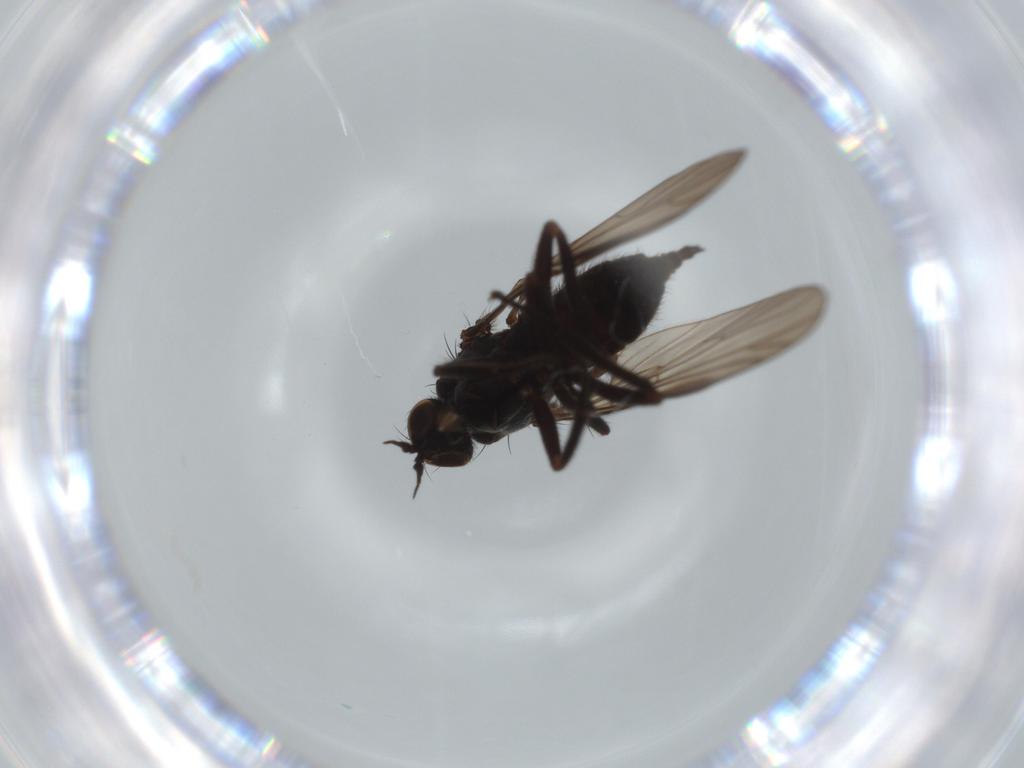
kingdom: Animalia
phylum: Arthropoda
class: Insecta
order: Diptera
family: Empididae
